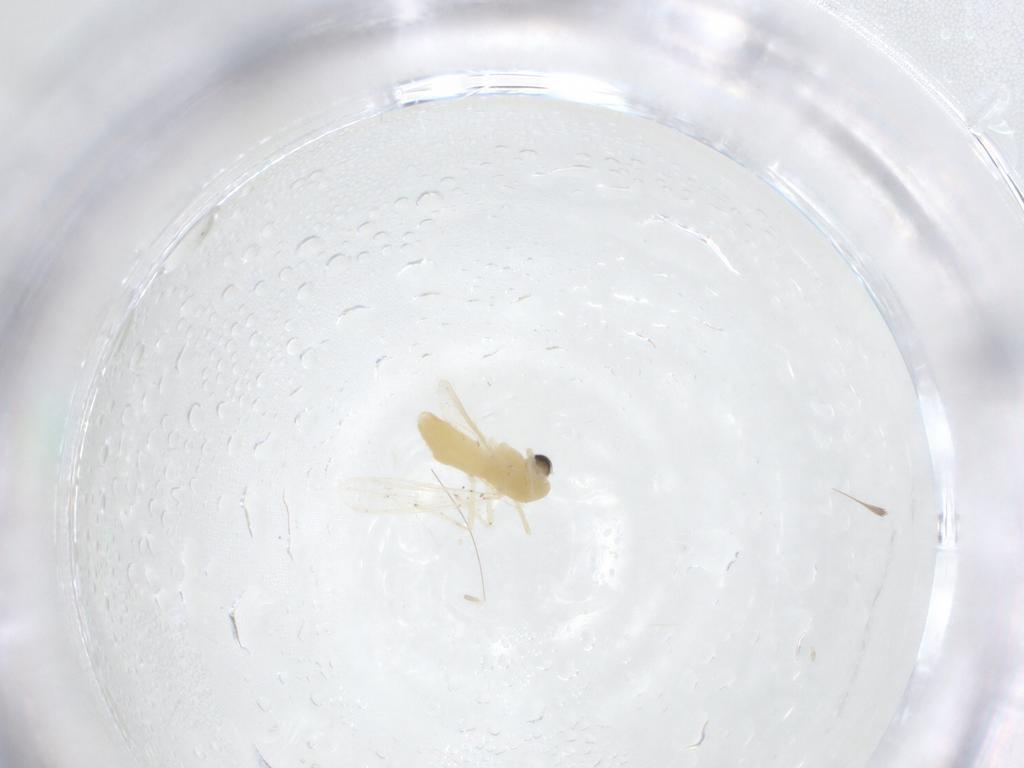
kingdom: Animalia
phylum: Arthropoda
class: Insecta
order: Diptera
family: Chironomidae
